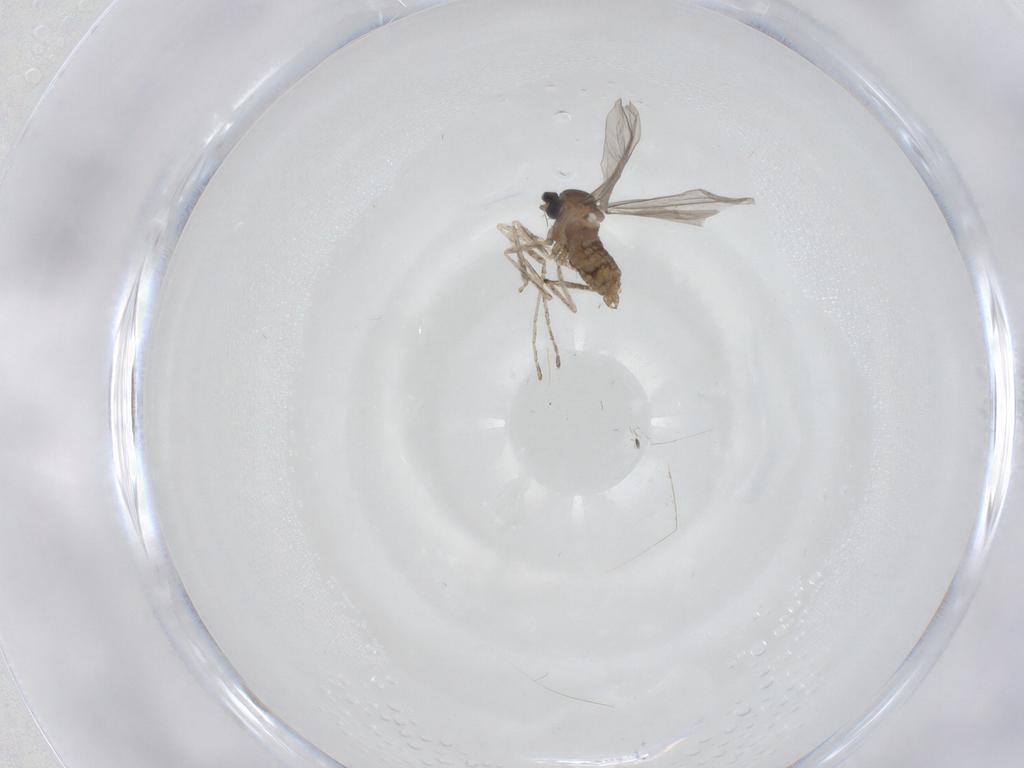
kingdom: Animalia
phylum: Arthropoda
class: Insecta
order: Diptera
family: Cecidomyiidae
